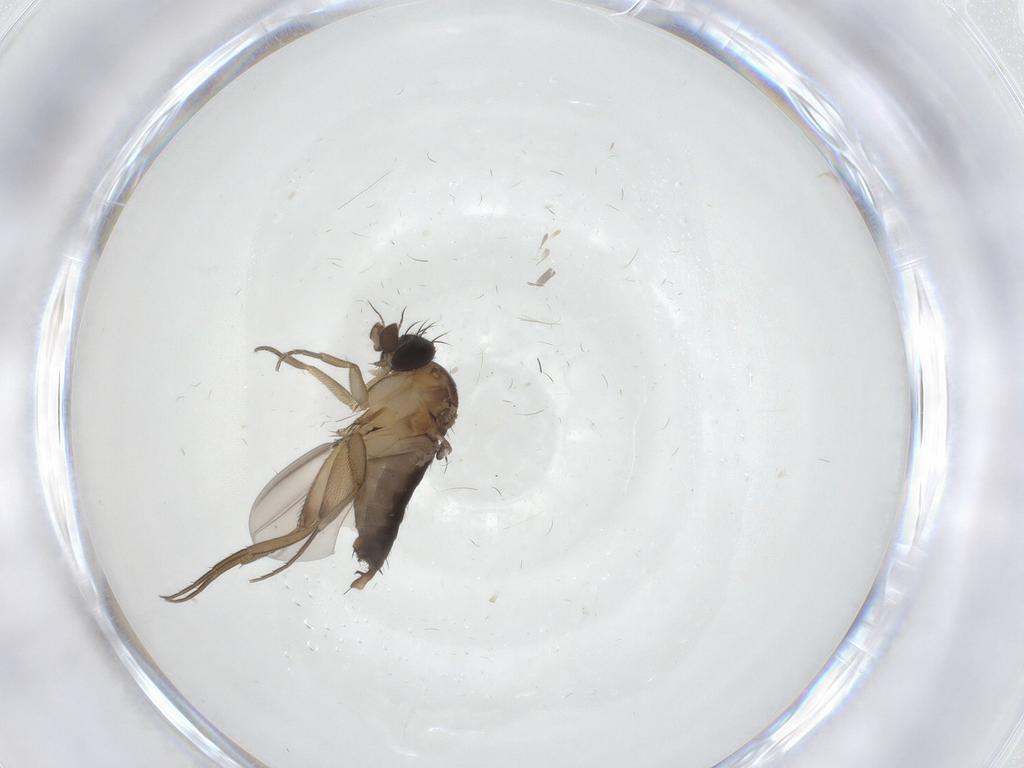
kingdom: Animalia
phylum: Arthropoda
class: Insecta
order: Diptera
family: Phoridae
